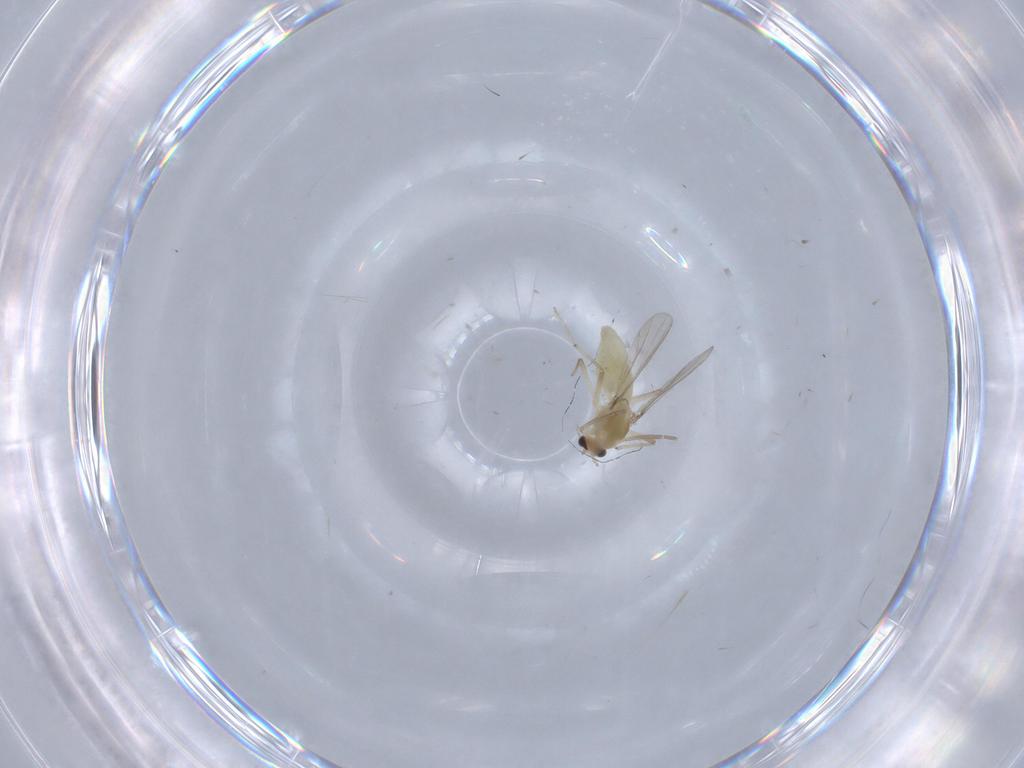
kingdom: Animalia
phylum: Arthropoda
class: Insecta
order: Diptera
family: Chironomidae
